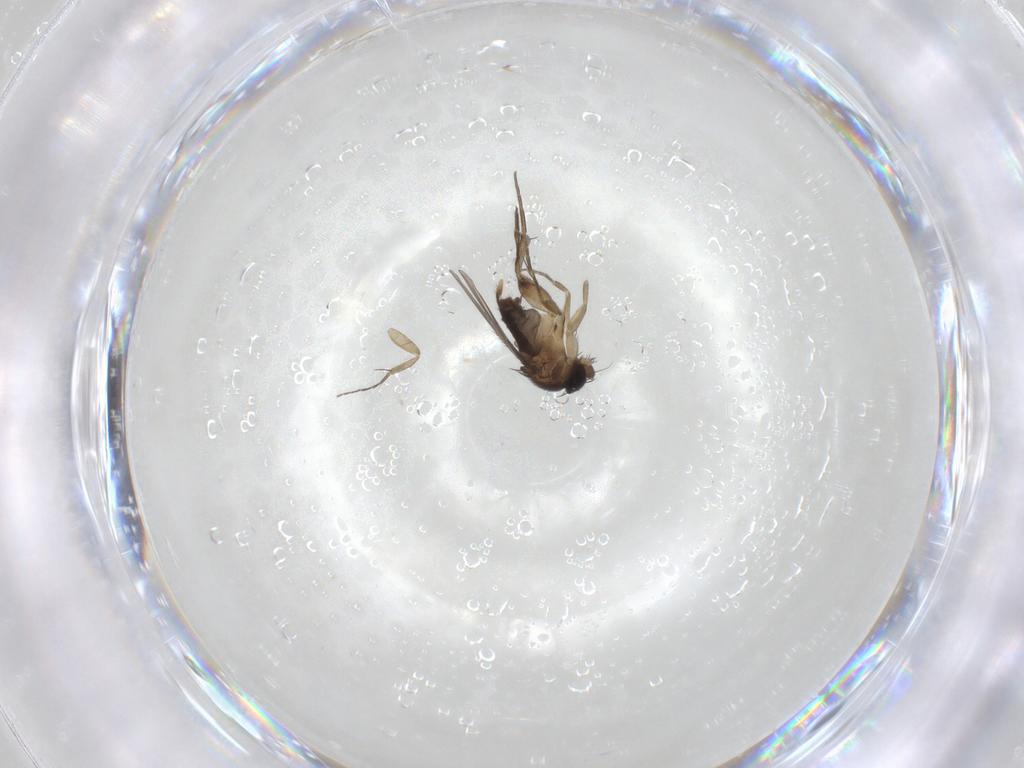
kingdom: Animalia
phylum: Arthropoda
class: Insecta
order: Diptera
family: Phoridae
